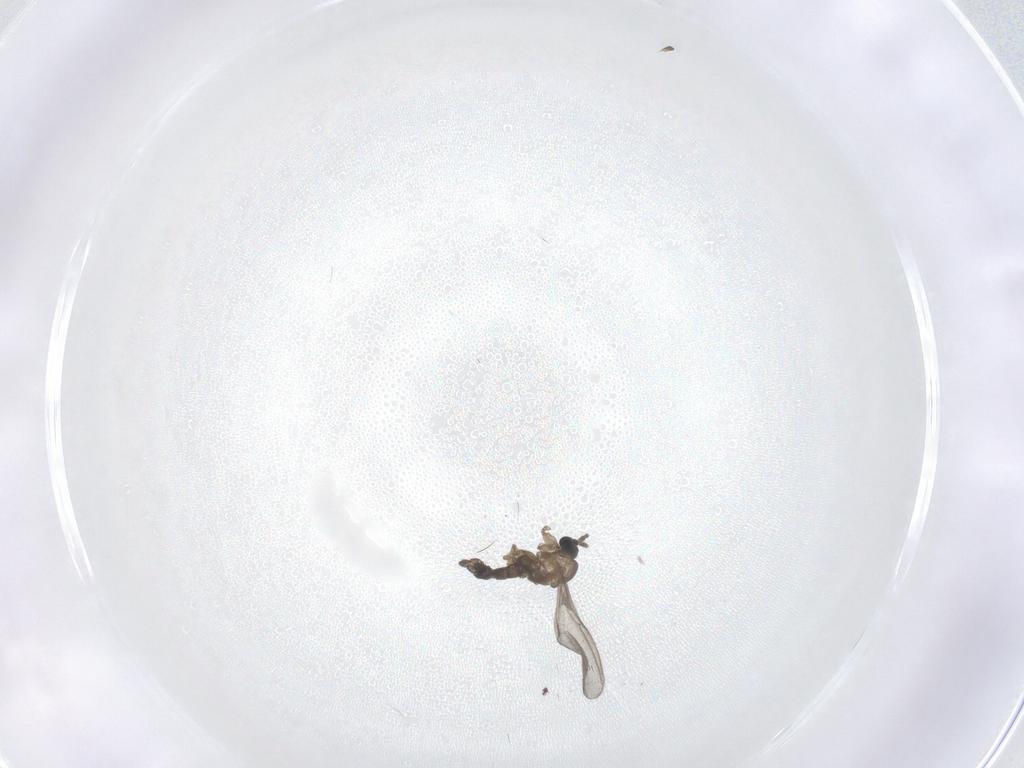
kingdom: Animalia
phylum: Arthropoda
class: Insecta
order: Diptera
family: Sciaridae
